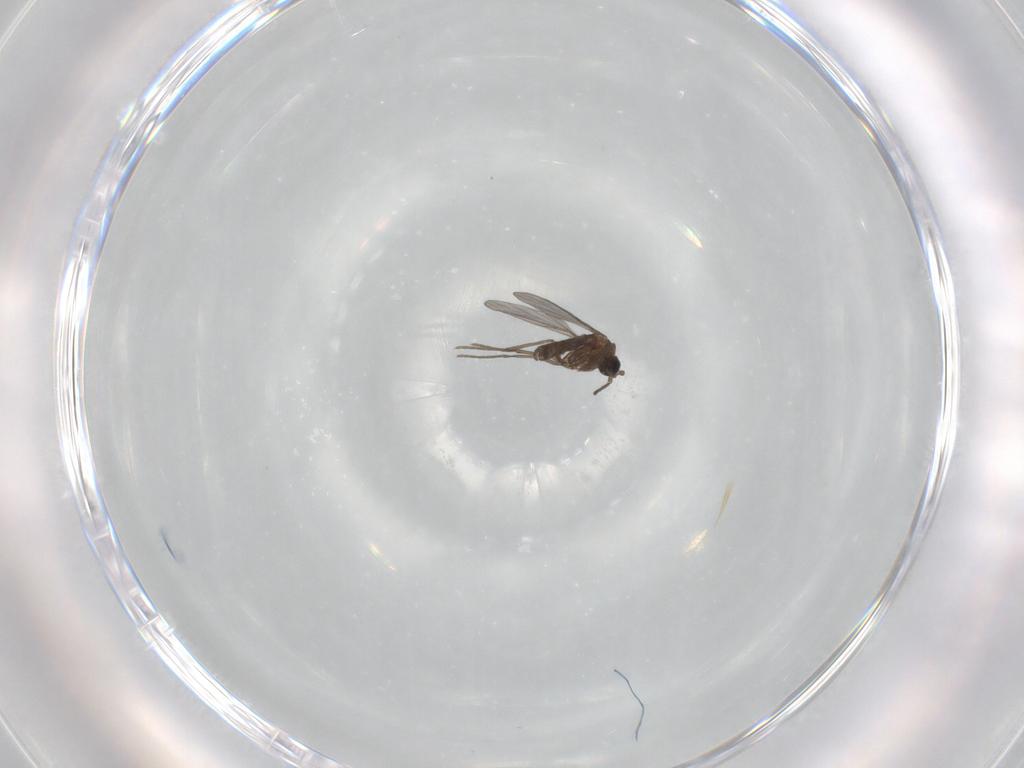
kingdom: Animalia
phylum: Arthropoda
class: Insecta
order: Diptera
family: Sciaridae
